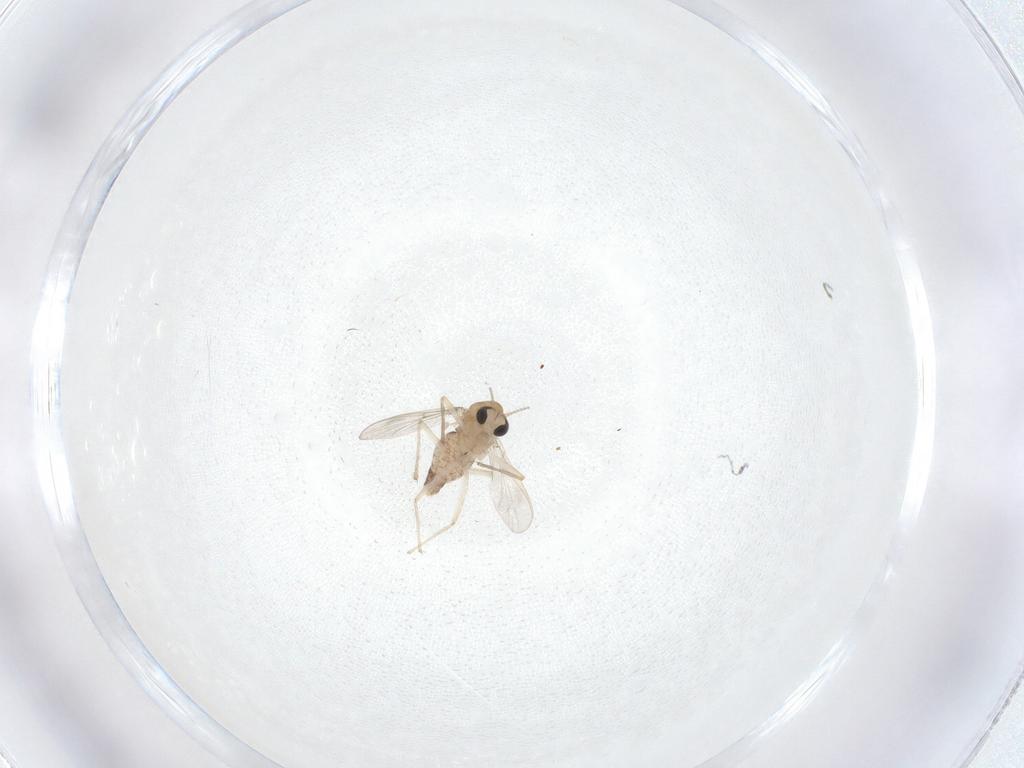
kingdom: Animalia
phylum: Arthropoda
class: Insecta
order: Diptera
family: Chironomidae
